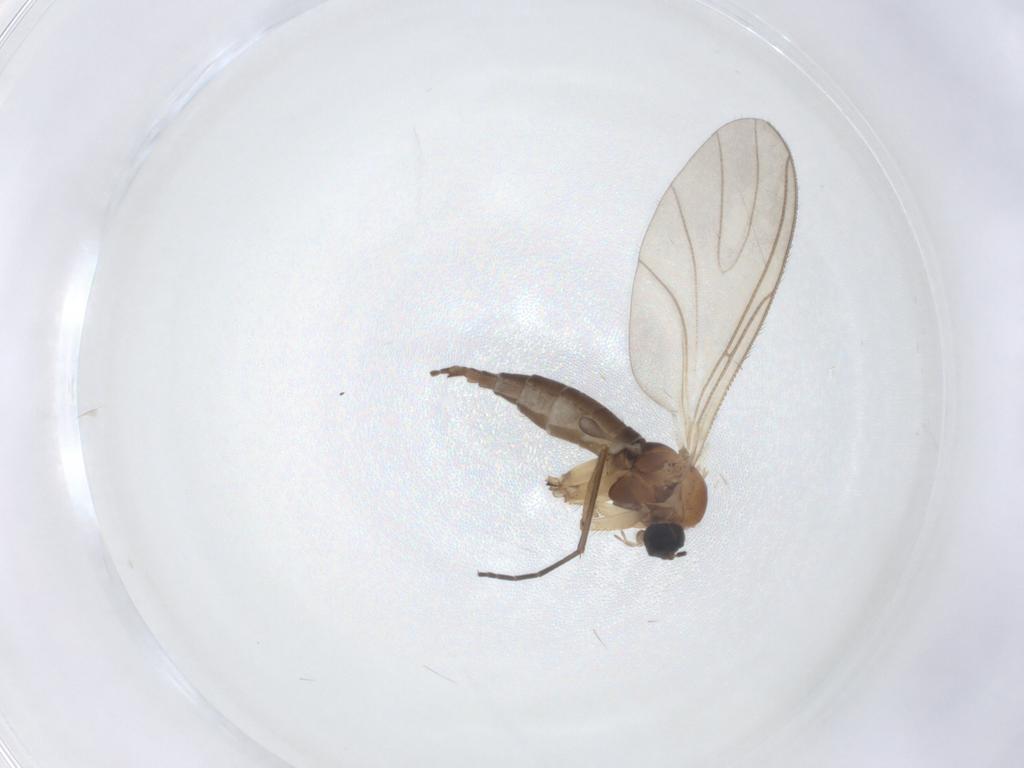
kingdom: Animalia
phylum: Arthropoda
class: Insecta
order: Diptera
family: Sciaridae
